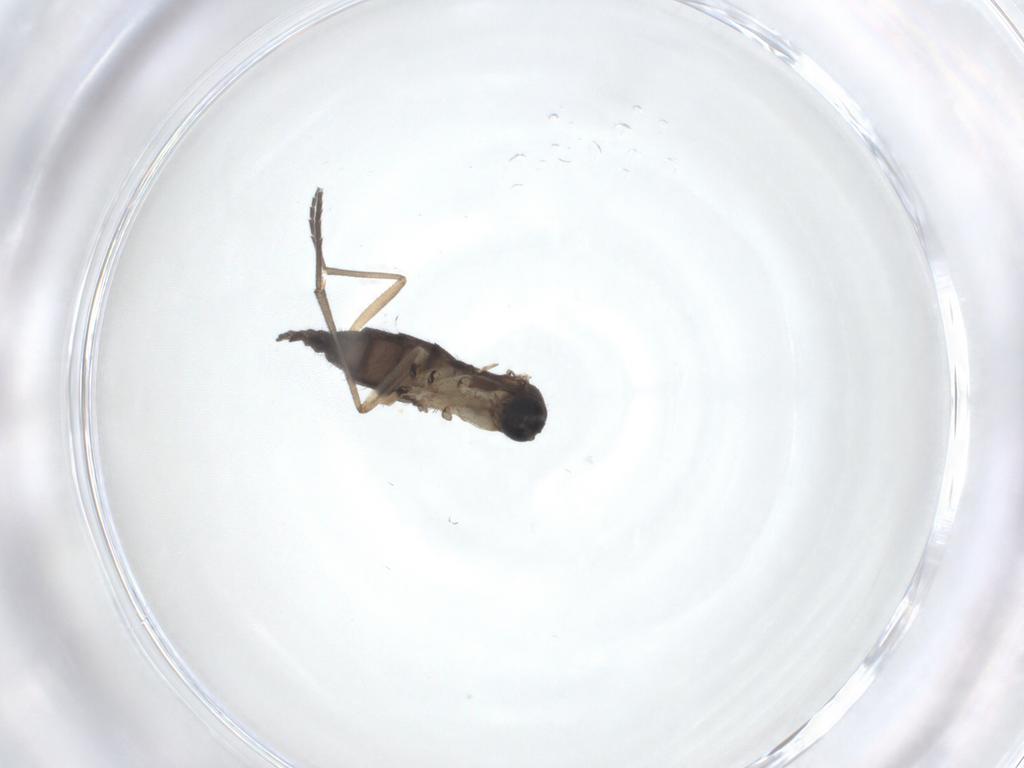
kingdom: Animalia
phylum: Arthropoda
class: Insecta
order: Diptera
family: Sciaridae
